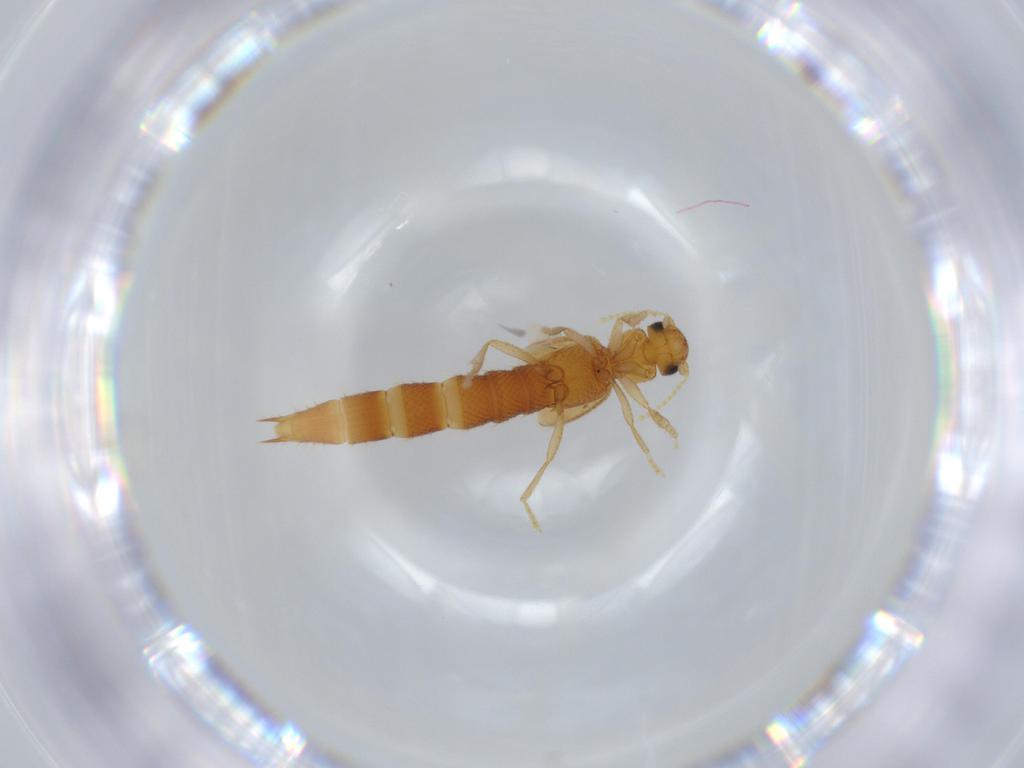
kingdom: Animalia
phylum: Arthropoda
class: Insecta
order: Coleoptera
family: Staphylinidae
